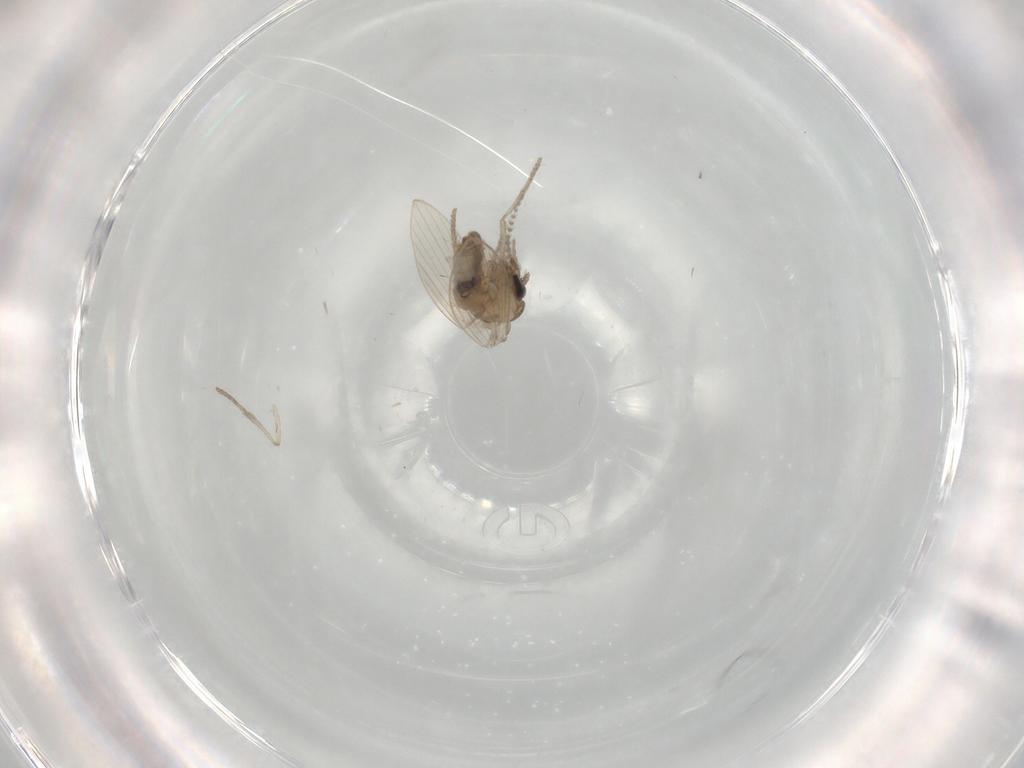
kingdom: Animalia
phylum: Arthropoda
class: Insecta
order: Diptera
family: Psychodidae
